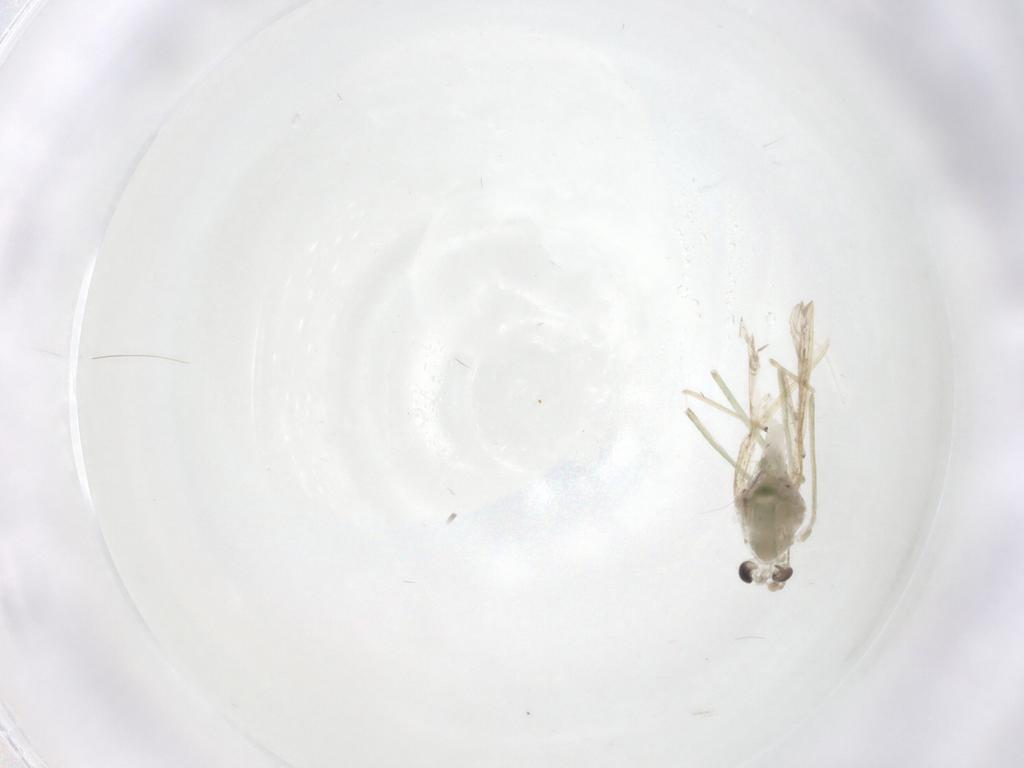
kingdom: Animalia
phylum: Arthropoda
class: Insecta
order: Diptera
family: Chironomidae
